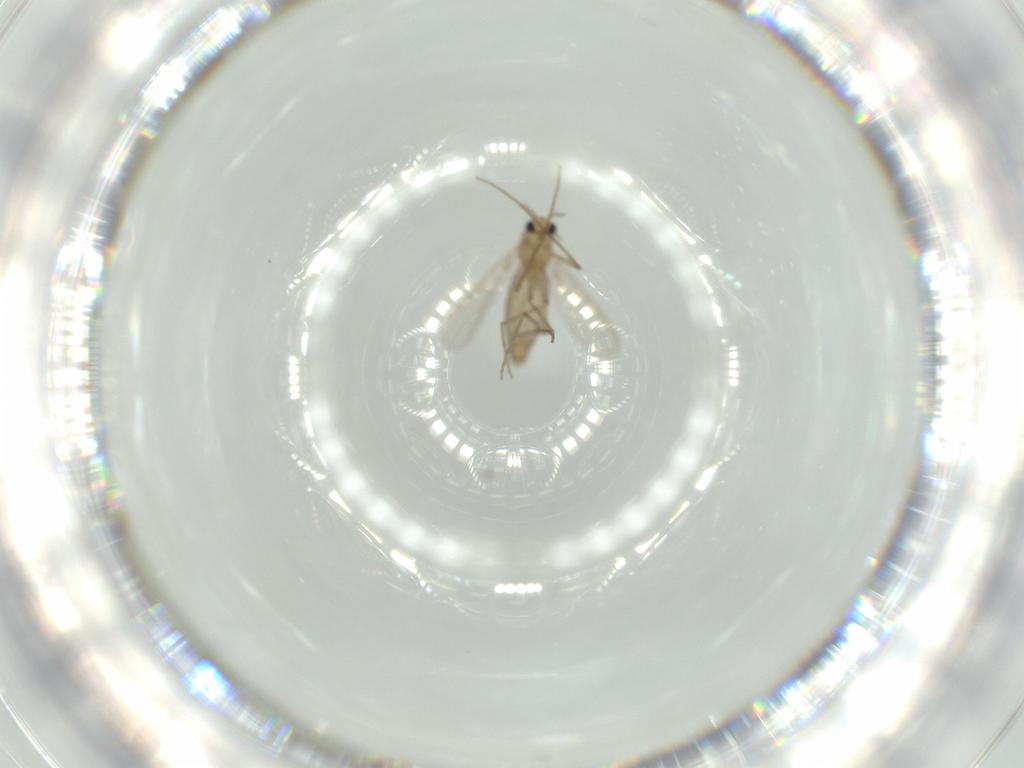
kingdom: Animalia
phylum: Arthropoda
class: Insecta
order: Diptera
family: Chironomidae
